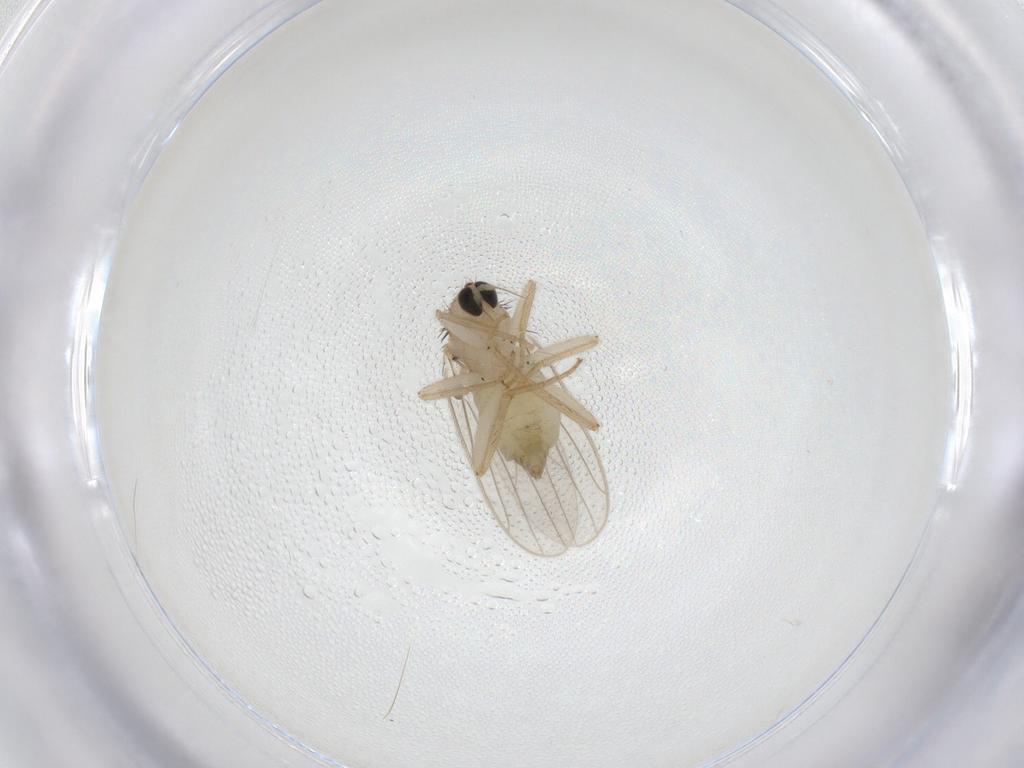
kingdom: Animalia
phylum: Arthropoda
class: Insecta
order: Diptera
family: Hybotidae
